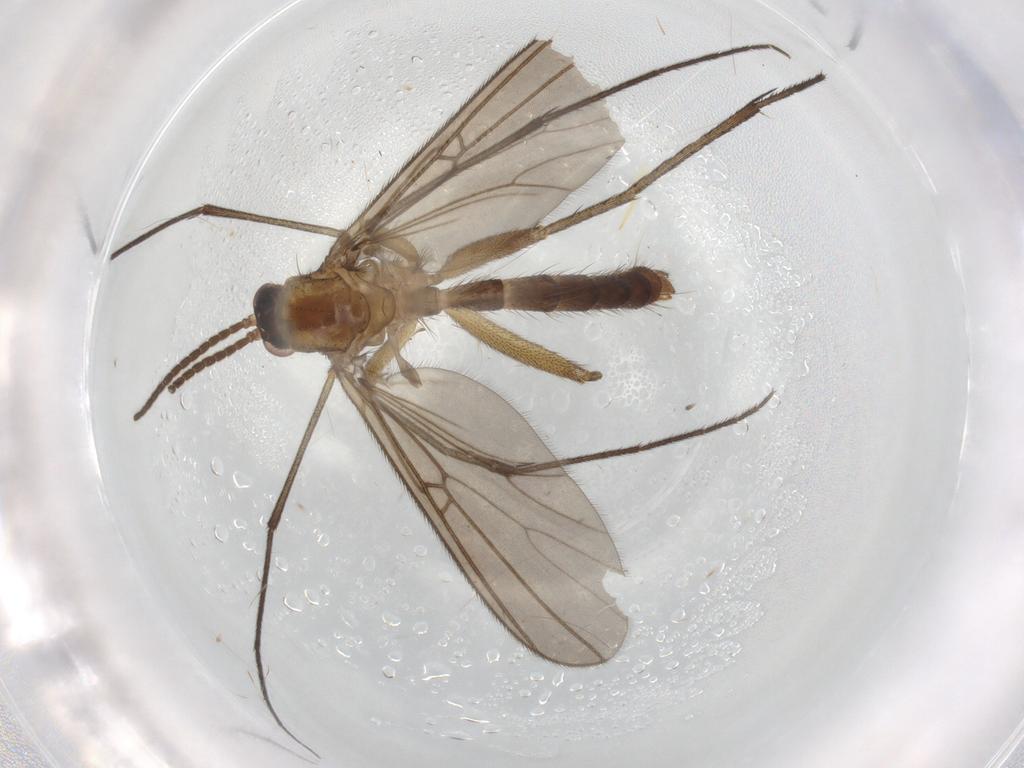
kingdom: Animalia
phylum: Arthropoda
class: Insecta
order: Diptera
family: Mycetophilidae
